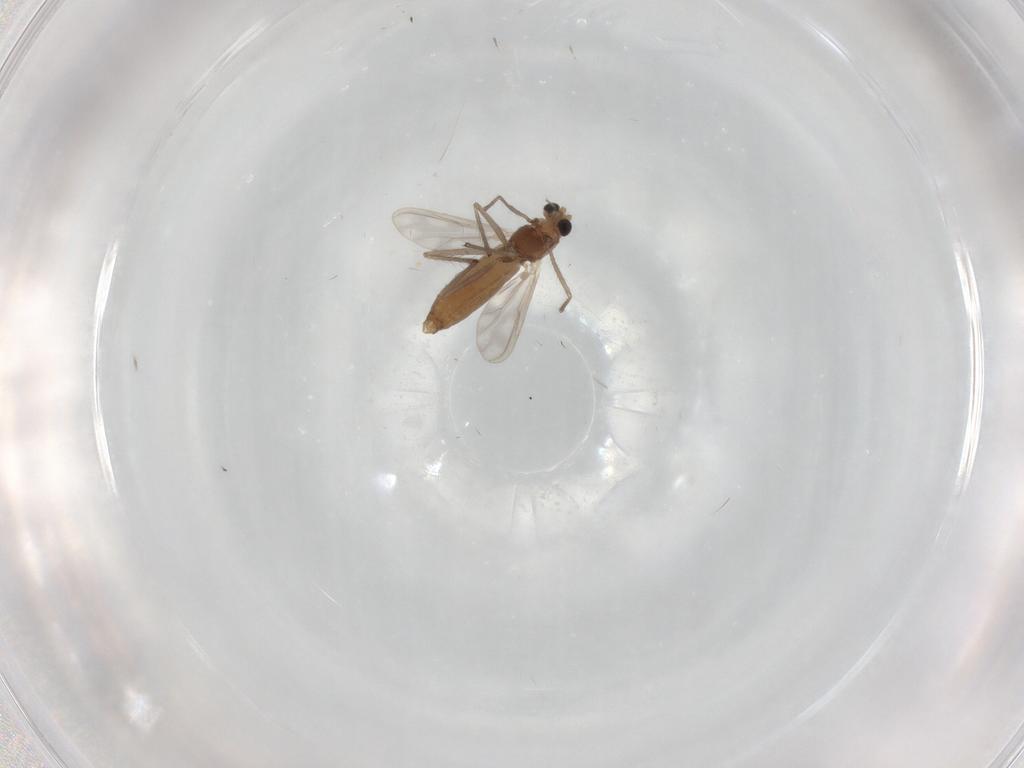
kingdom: Animalia
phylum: Arthropoda
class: Insecta
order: Diptera
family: Chironomidae
